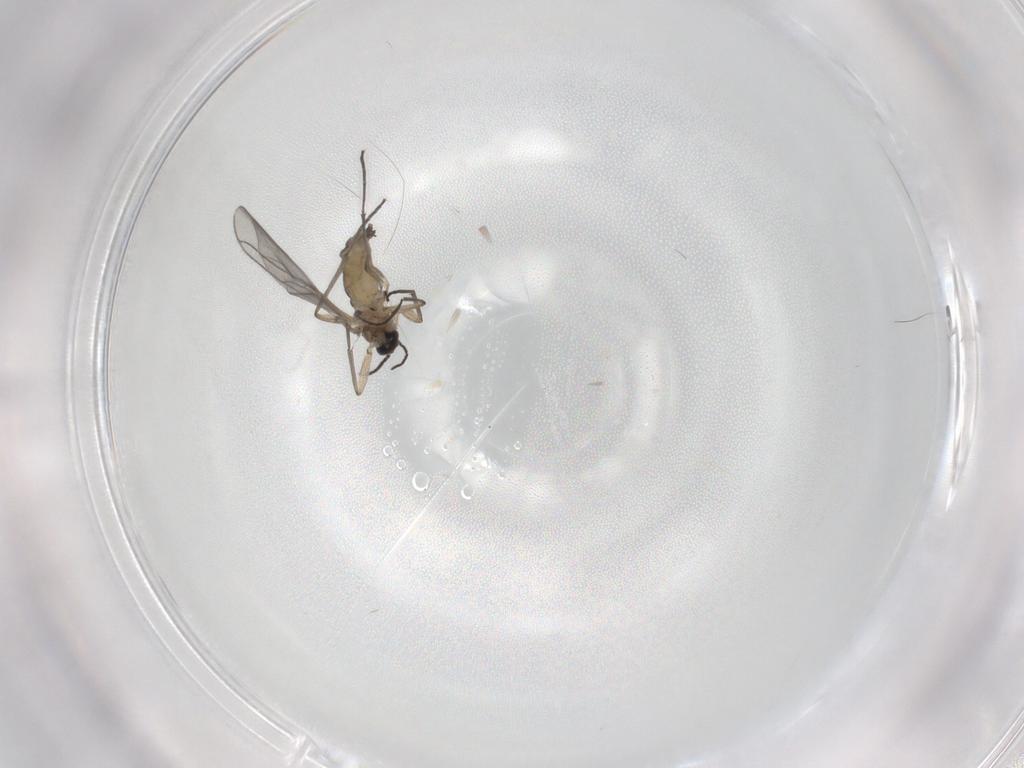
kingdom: Animalia
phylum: Arthropoda
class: Insecta
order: Diptera
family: Sciaridae
